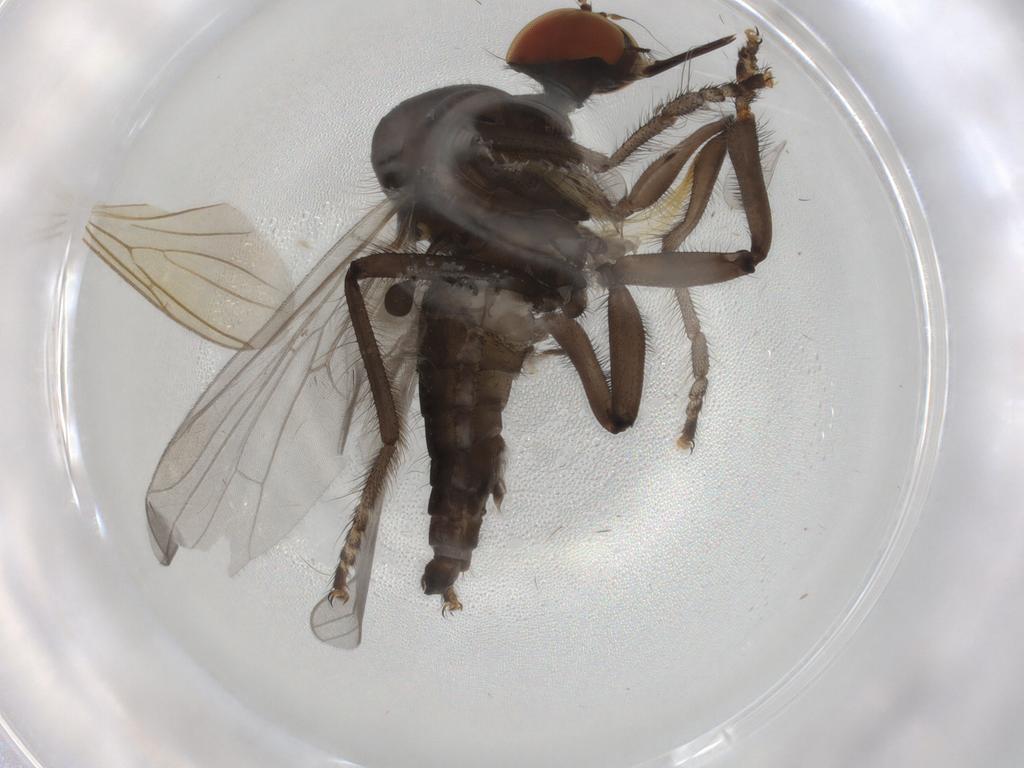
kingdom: Animalia
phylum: Arthropoda
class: Insecta
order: Diptera
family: Hybotidae
